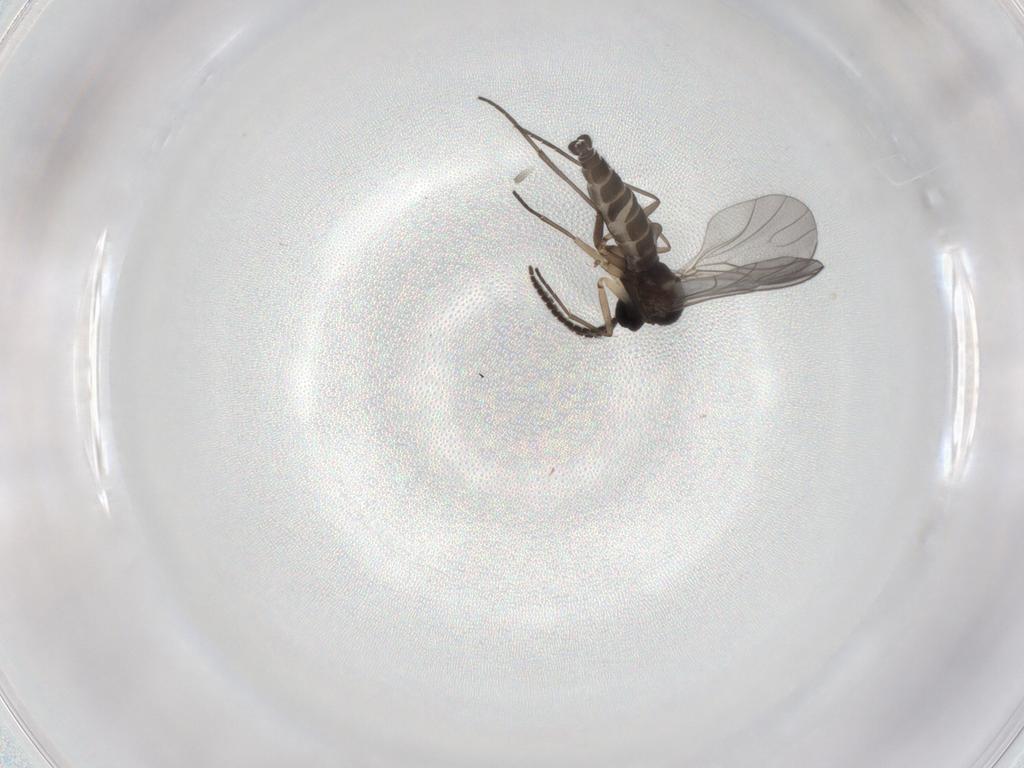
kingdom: Animalia
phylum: Arthropoda
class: Insecta
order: Diptera
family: Sciaridae
